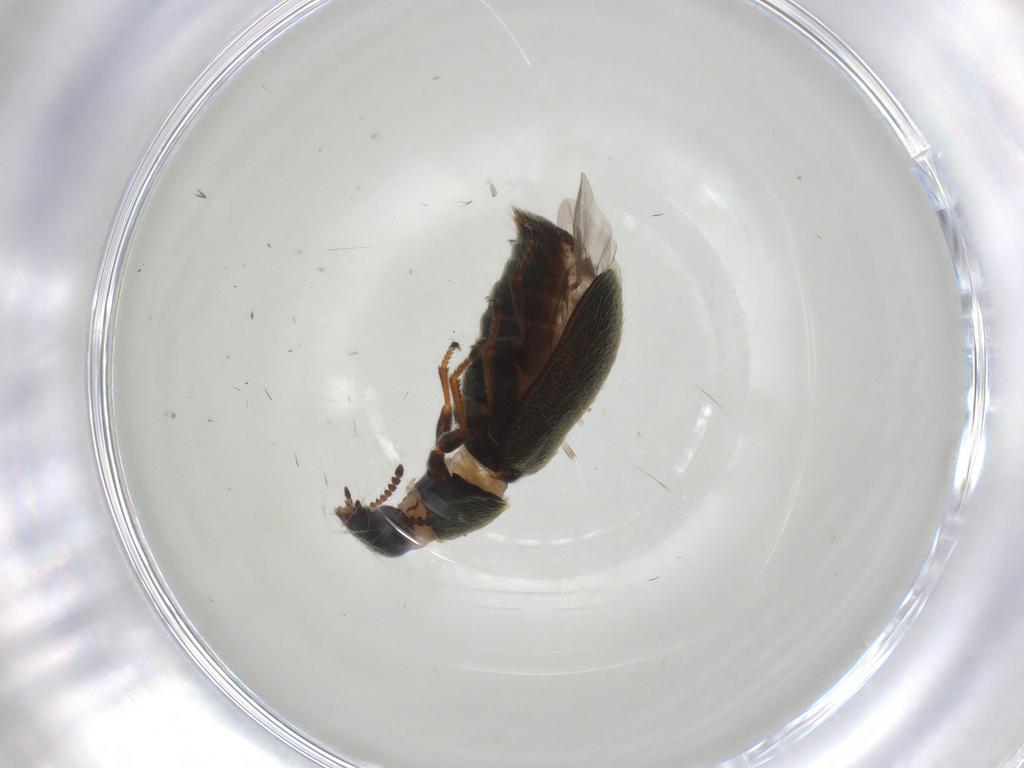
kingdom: Animalia
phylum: Arthropoda
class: Insecta
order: Coleoptera
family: Melyridae
